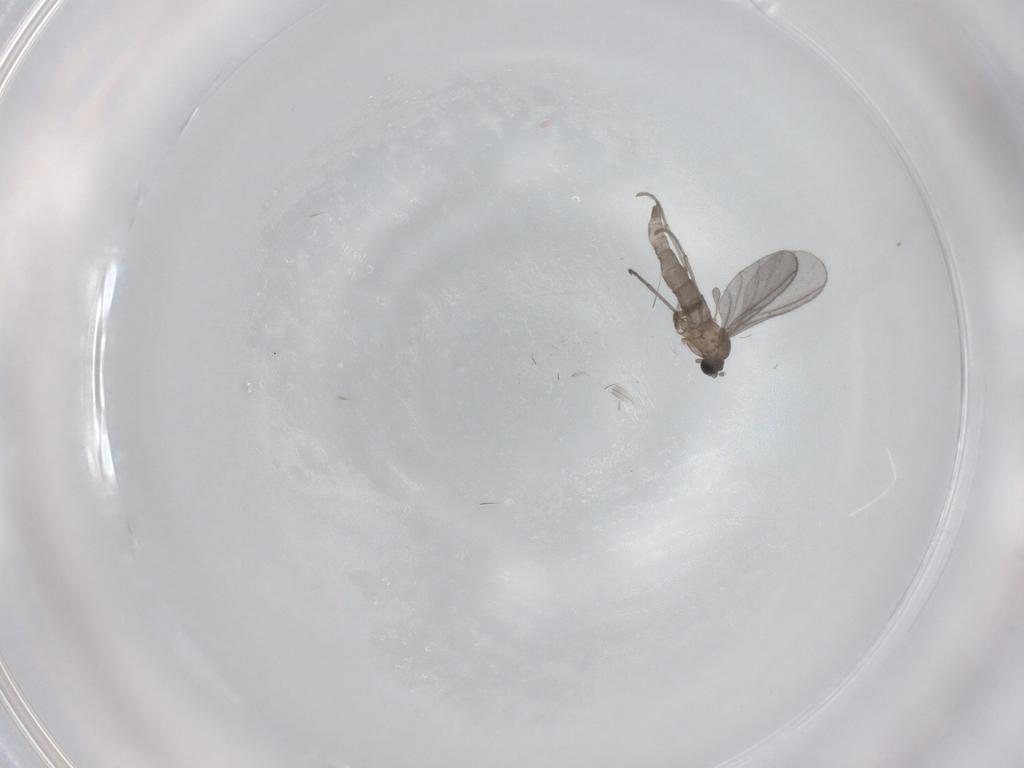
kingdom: Animalia
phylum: Arthropoda
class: Insecta
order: Diptera
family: Sciaridae
